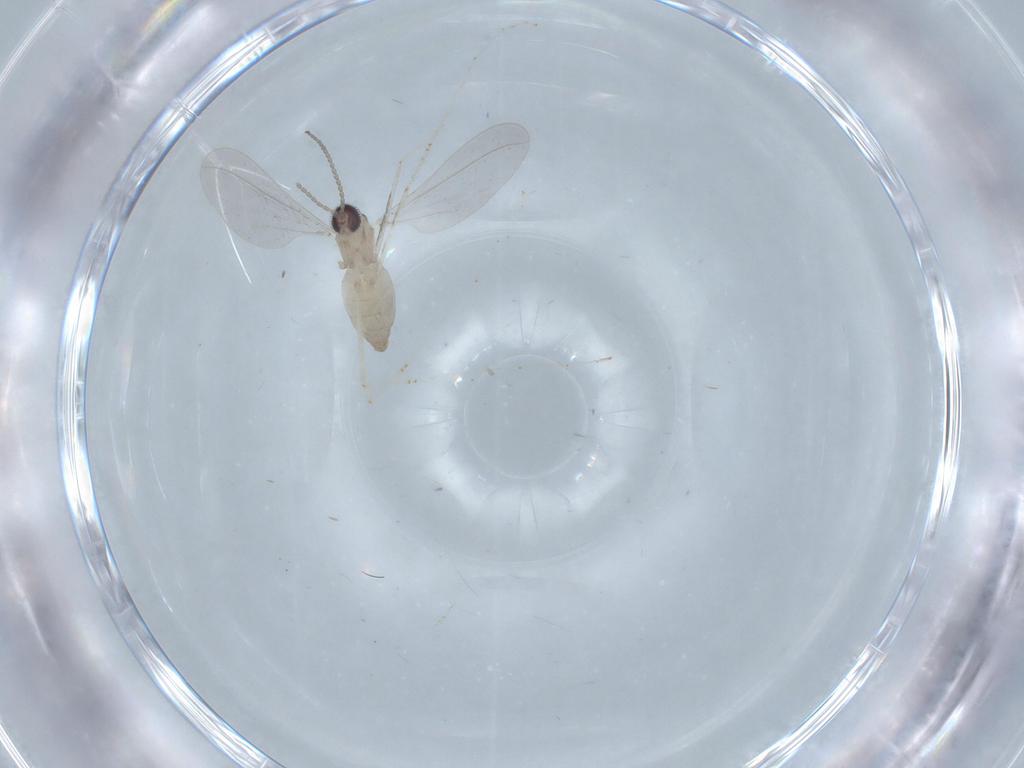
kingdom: Animalia
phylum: Arthropoda
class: Insecta
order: Diptera
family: Cecidomyiidae
